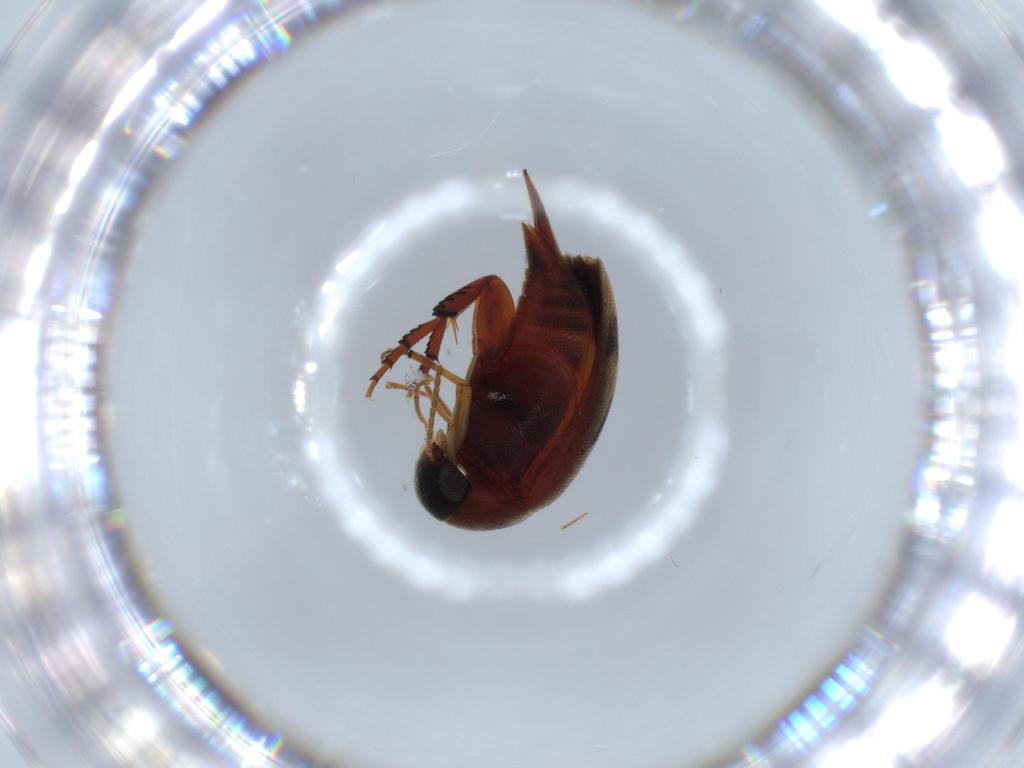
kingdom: Animalia
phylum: Arthropoda
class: Insecta
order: Coleoptera
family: Mordellidae
